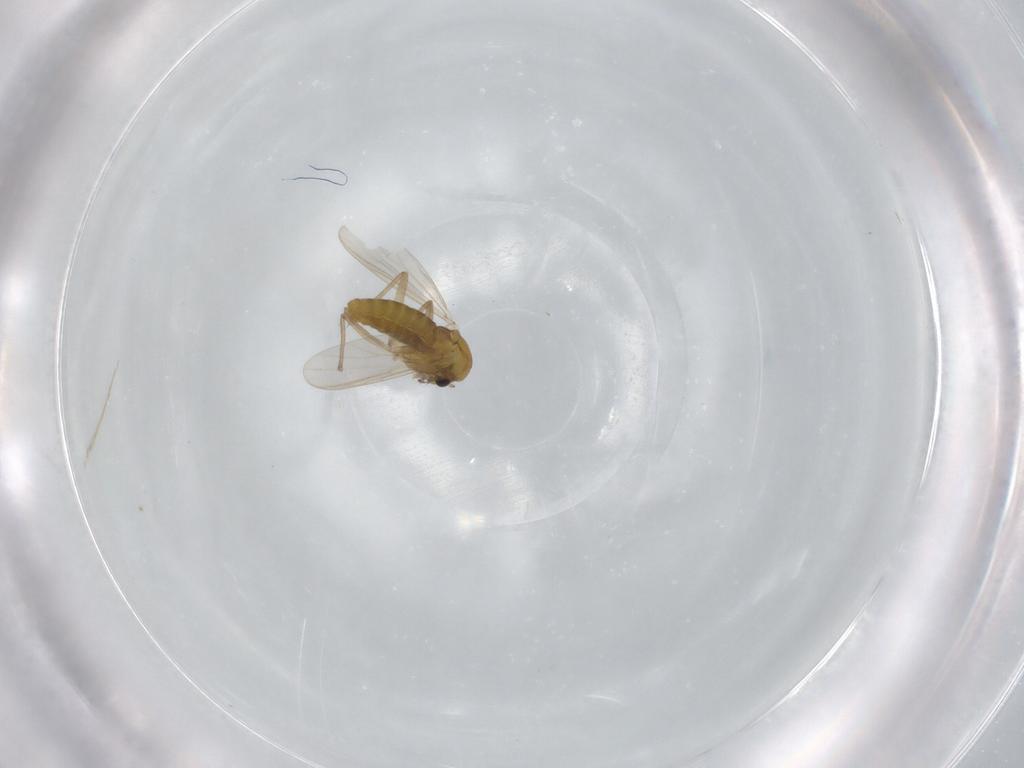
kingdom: Animalia
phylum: Arthropoda
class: Insecta
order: Diptera
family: Chironomidae
